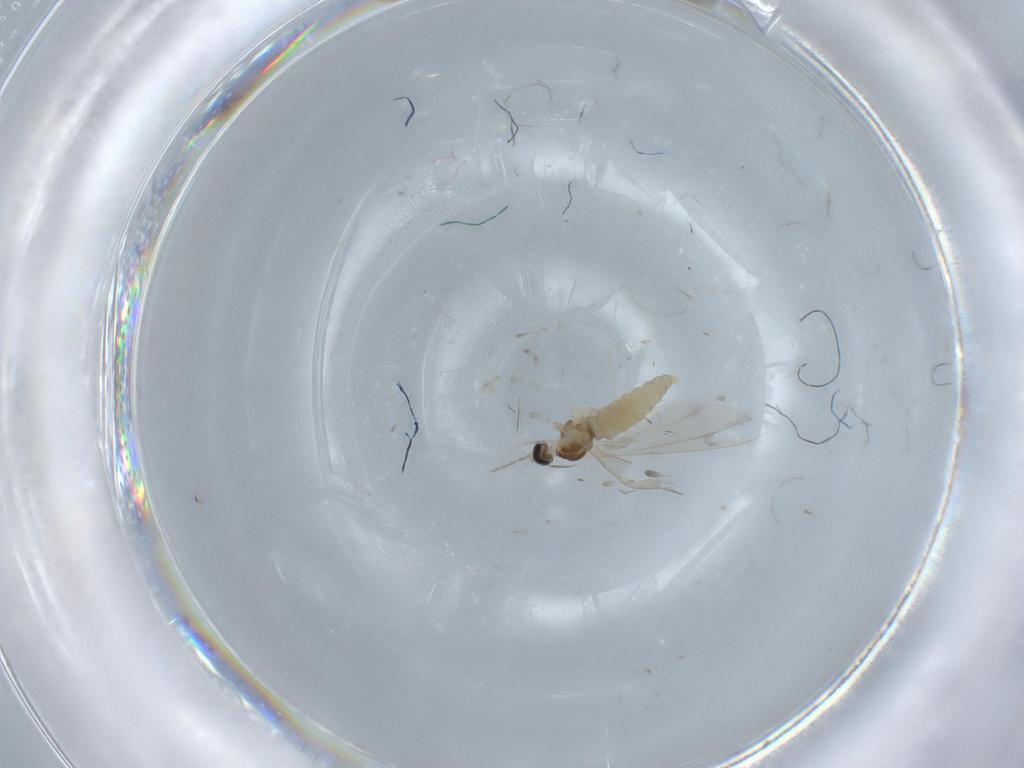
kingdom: Animalia
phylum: Arthropoda
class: Insecta
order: Diptera
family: Cecidomyiidae
